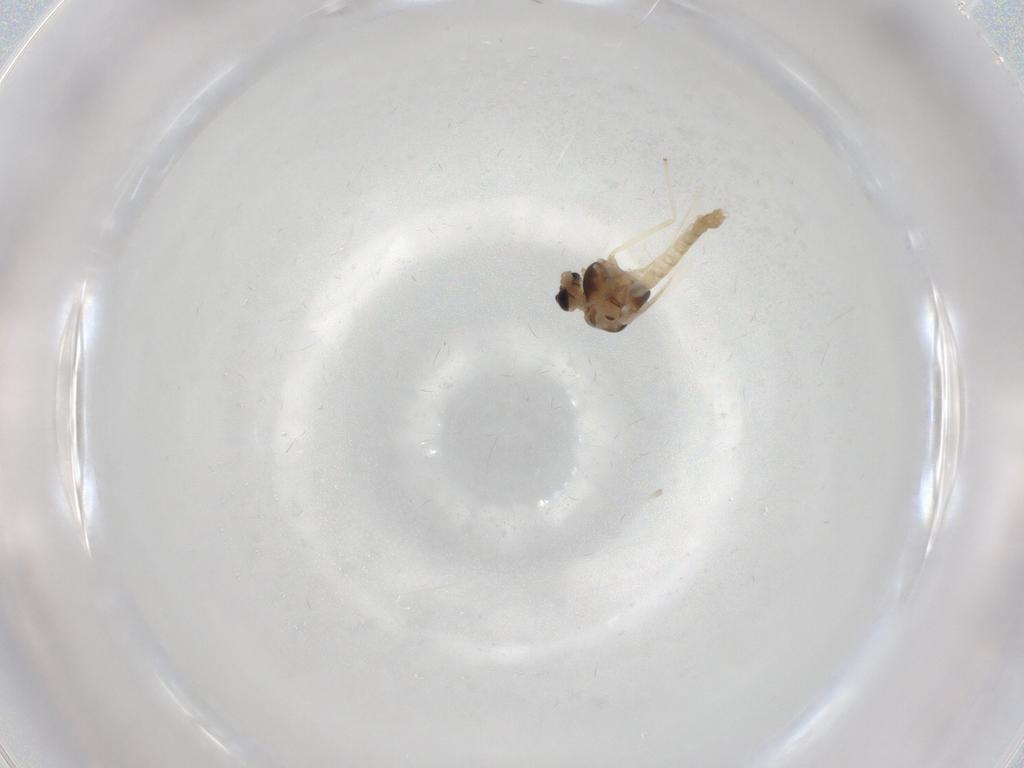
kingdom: Animalia
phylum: Arthropoda
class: Insecta
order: Diptera
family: Chironomidae
